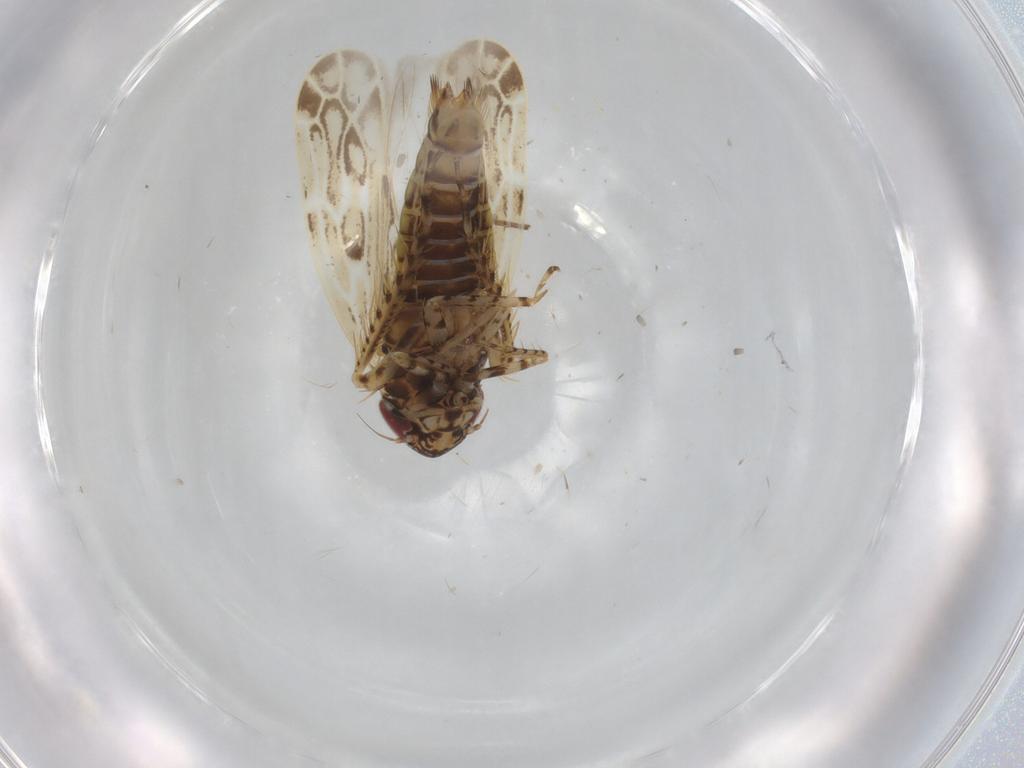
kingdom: Animalia
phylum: Arthropoda
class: Insecta
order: Hemiptera
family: Cicadellidae
